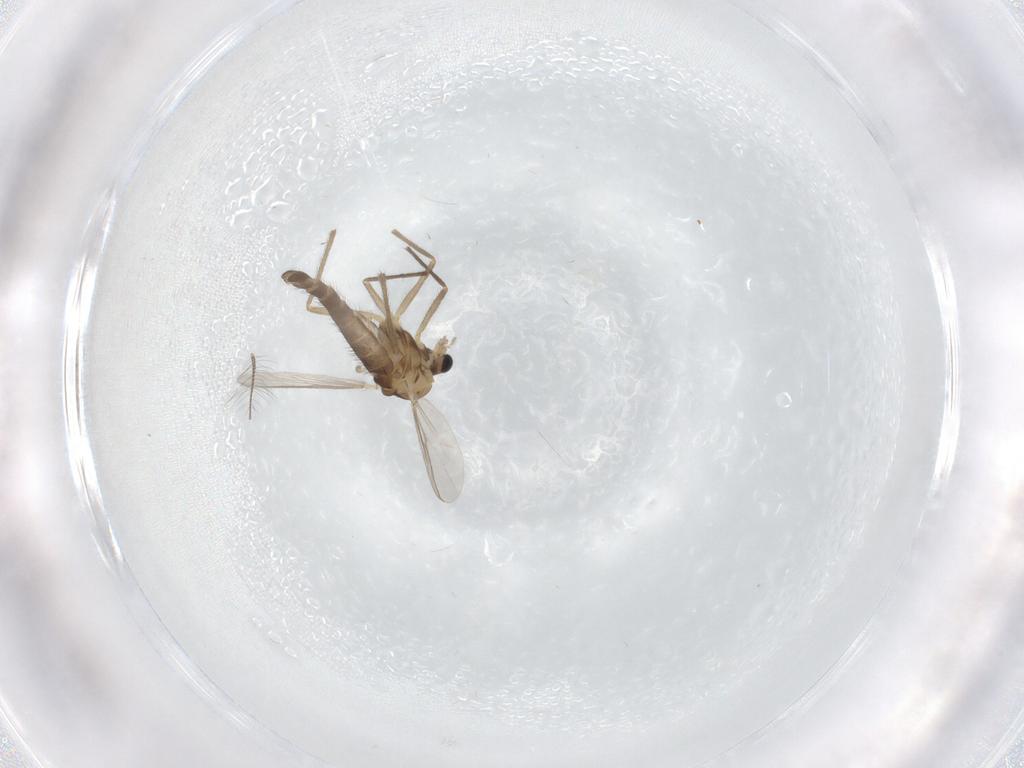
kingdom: Animalia
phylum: Arthropoda
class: Insecta
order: Diptera
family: Chironomidae
